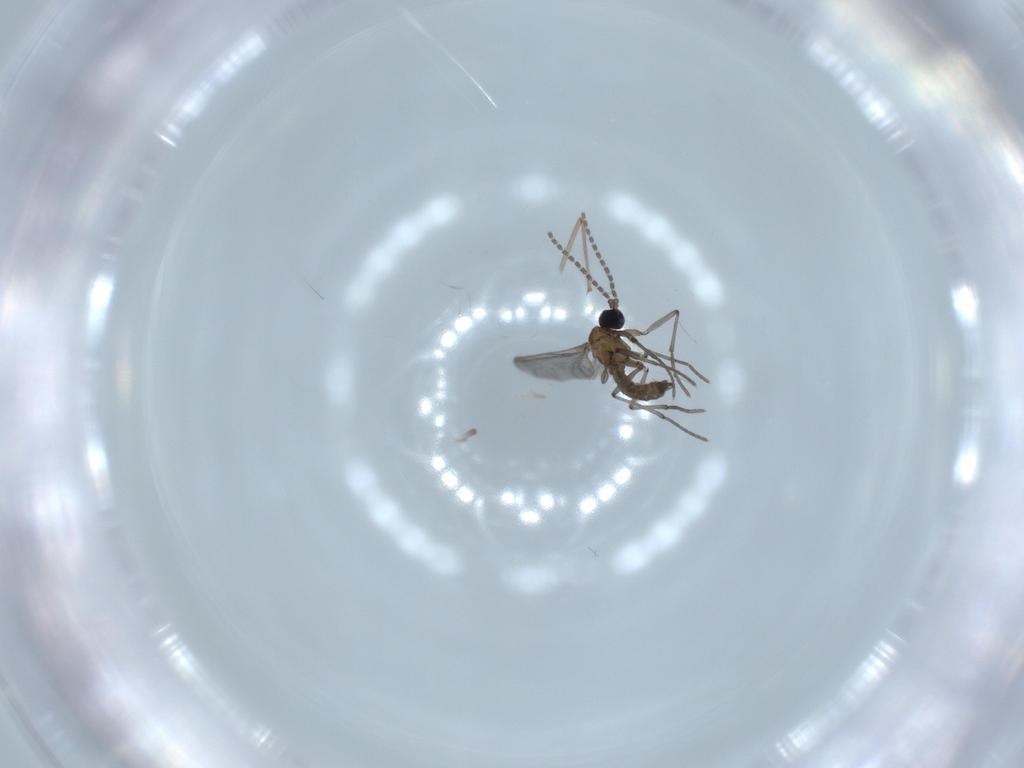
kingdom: Animalia
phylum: Arthropoda
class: Insecta
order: Diptera
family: Sciaridae
